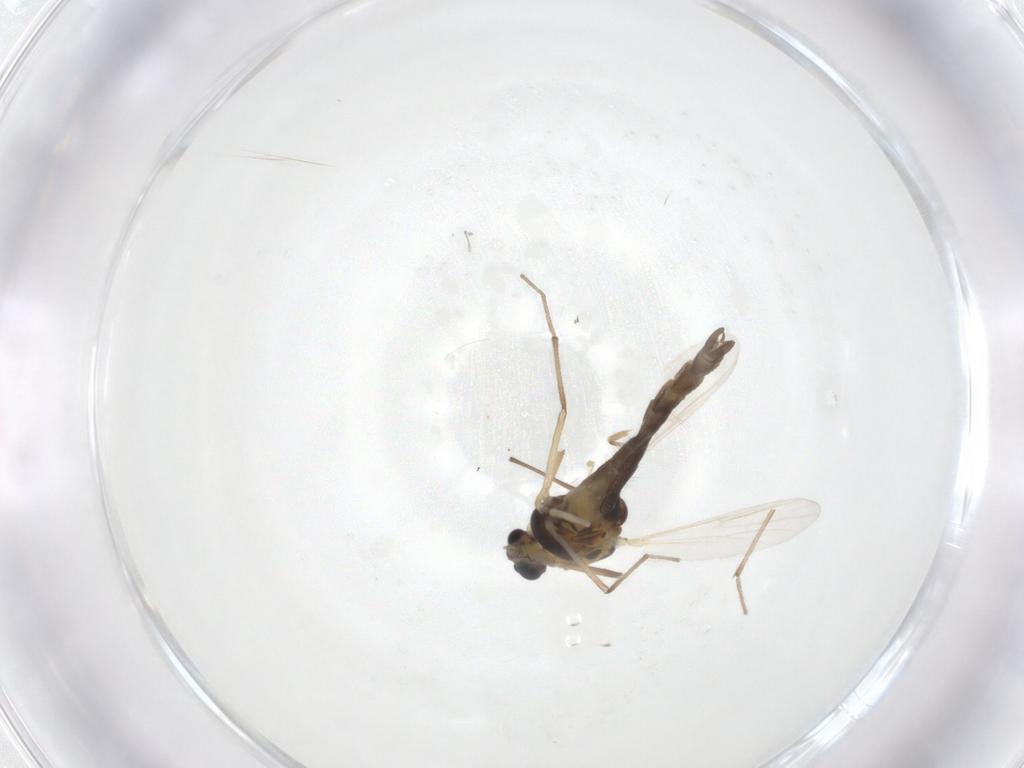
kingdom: Animalia
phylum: Arthropoda
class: Insecta
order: Diptera
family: Chironomidae
